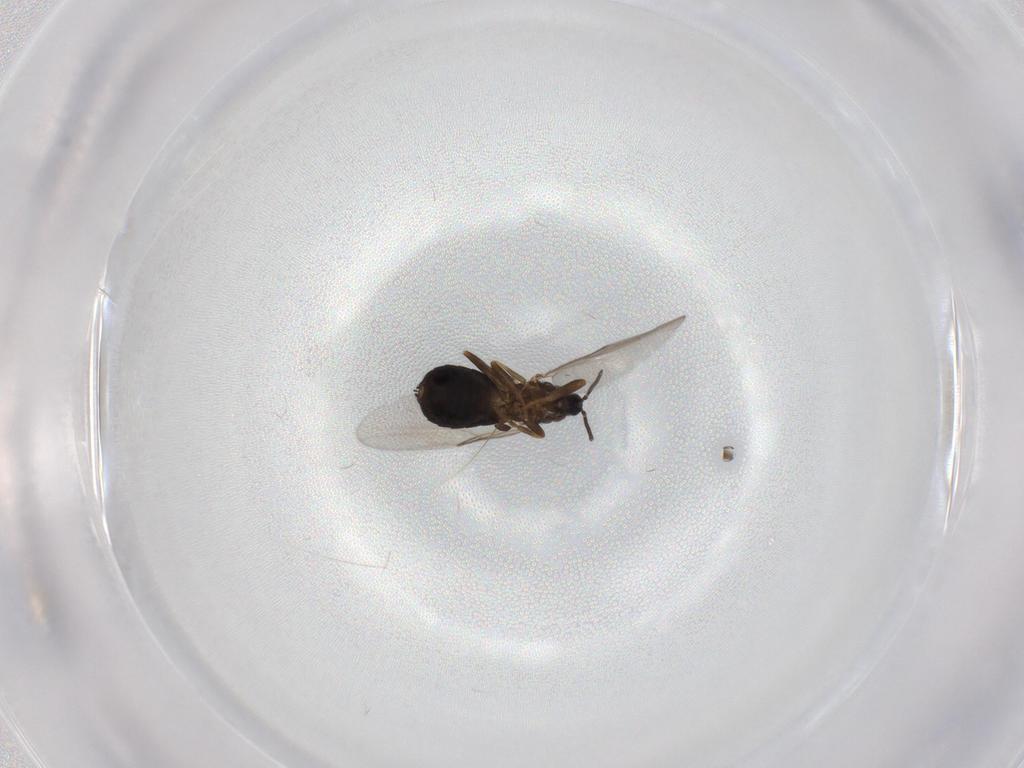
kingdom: Animalia
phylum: Arthropoda
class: Insecta
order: Diptera
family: Scatopsidae
